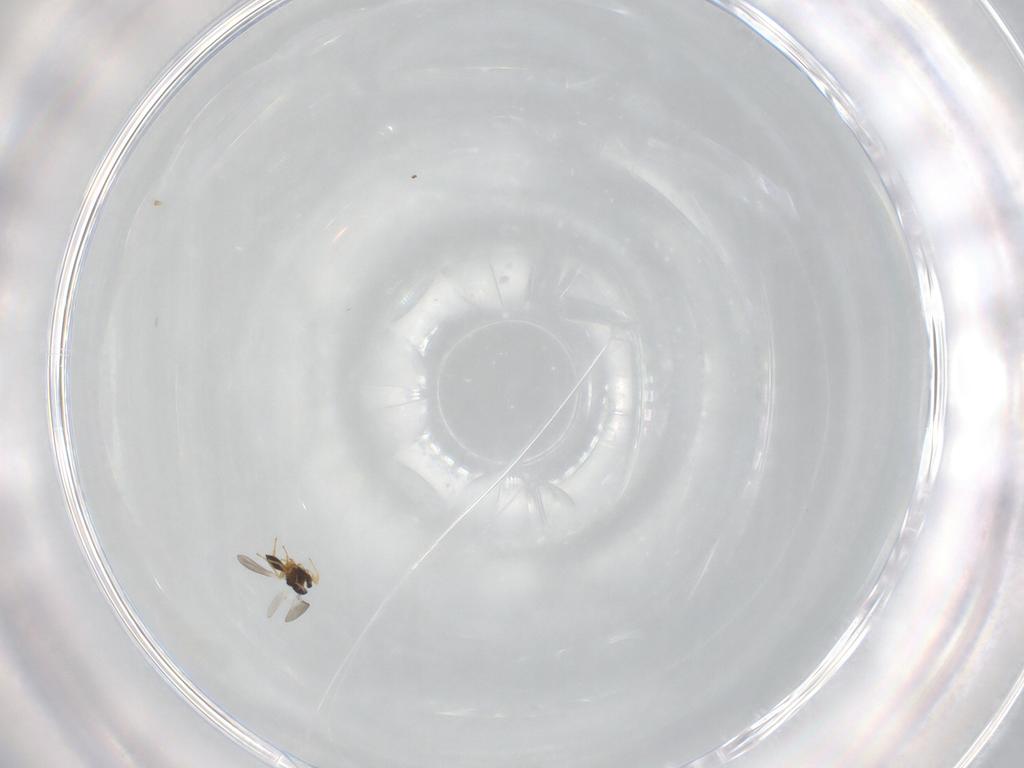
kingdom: Animalia
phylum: Arthropoda
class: Insecta
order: Hymenoptera
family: Platygastridae
